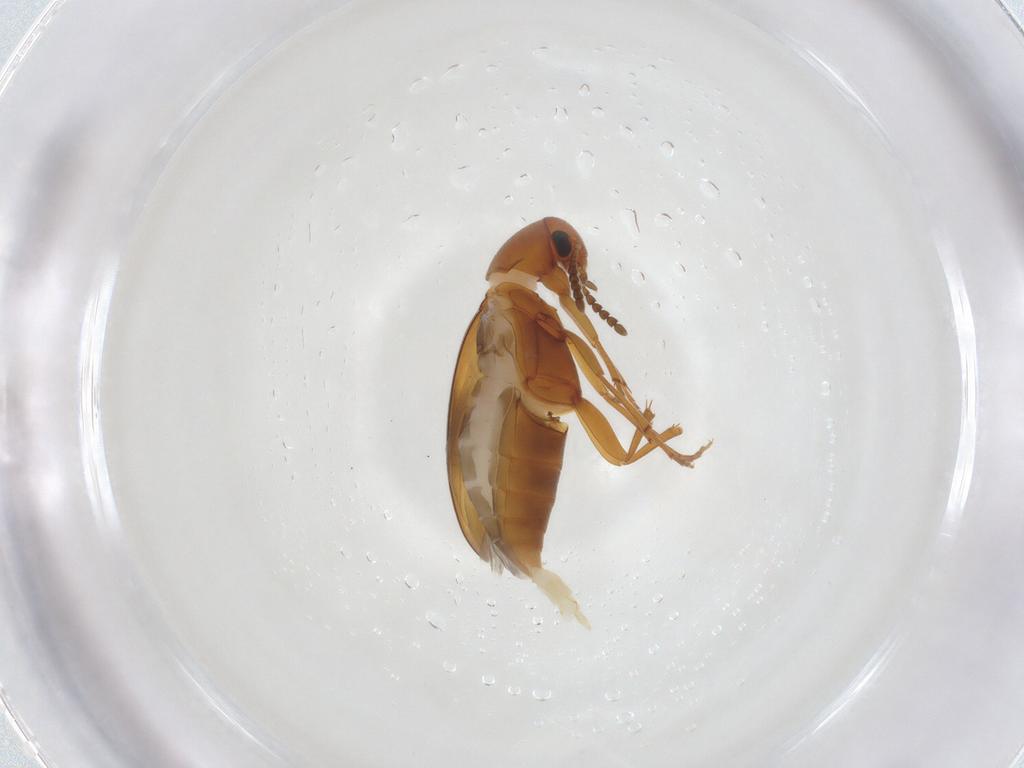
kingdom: Animalia
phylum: Arthropoda
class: Insecta
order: Coleoptera
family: Scraptiidae
